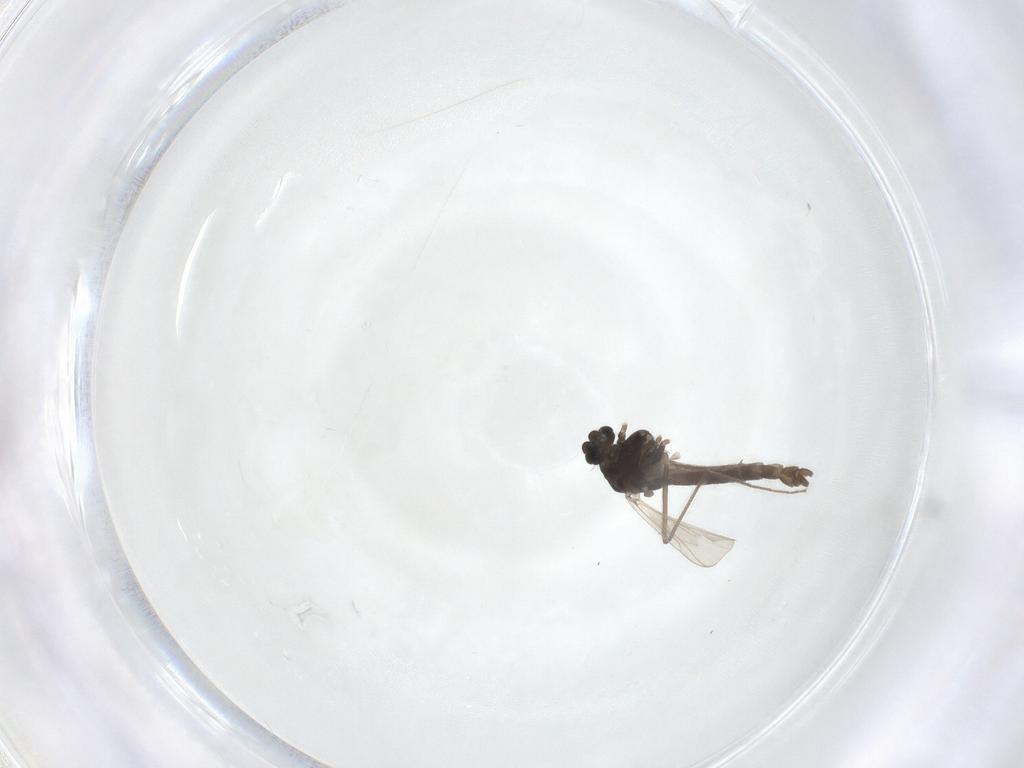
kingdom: Animalia
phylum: Arthropoda
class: Insecta
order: Diptera
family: Chironomidae
